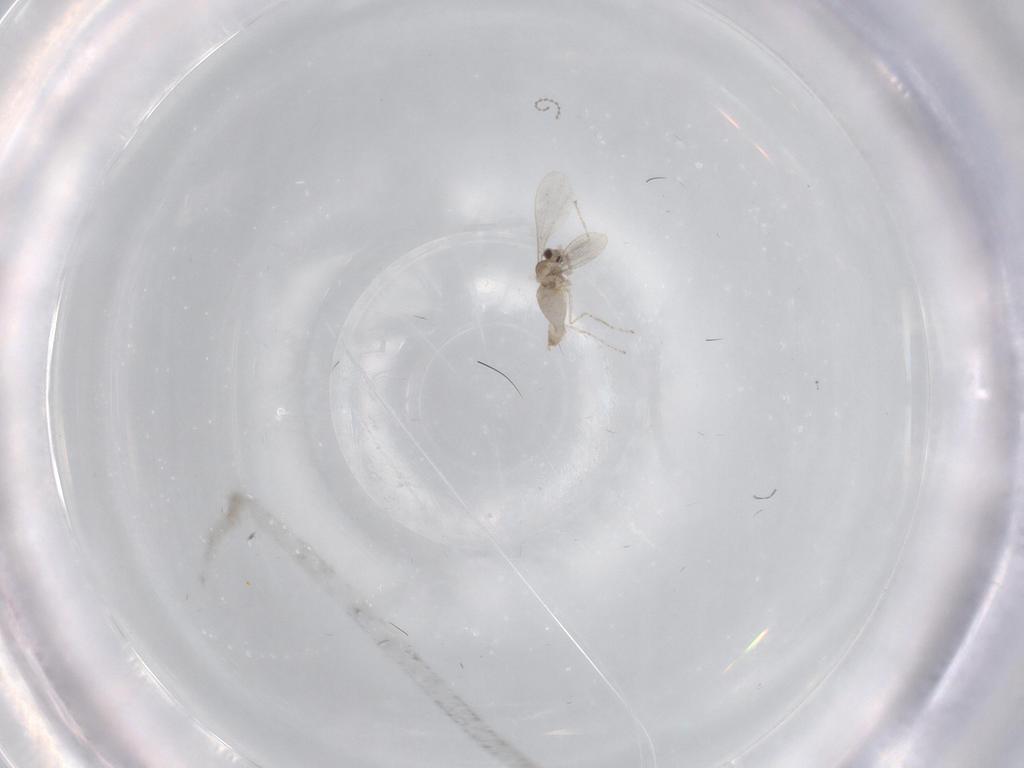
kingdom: Animalia
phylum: Arthropoda
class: Insecta
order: Diptera
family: Cecidomyiidae
